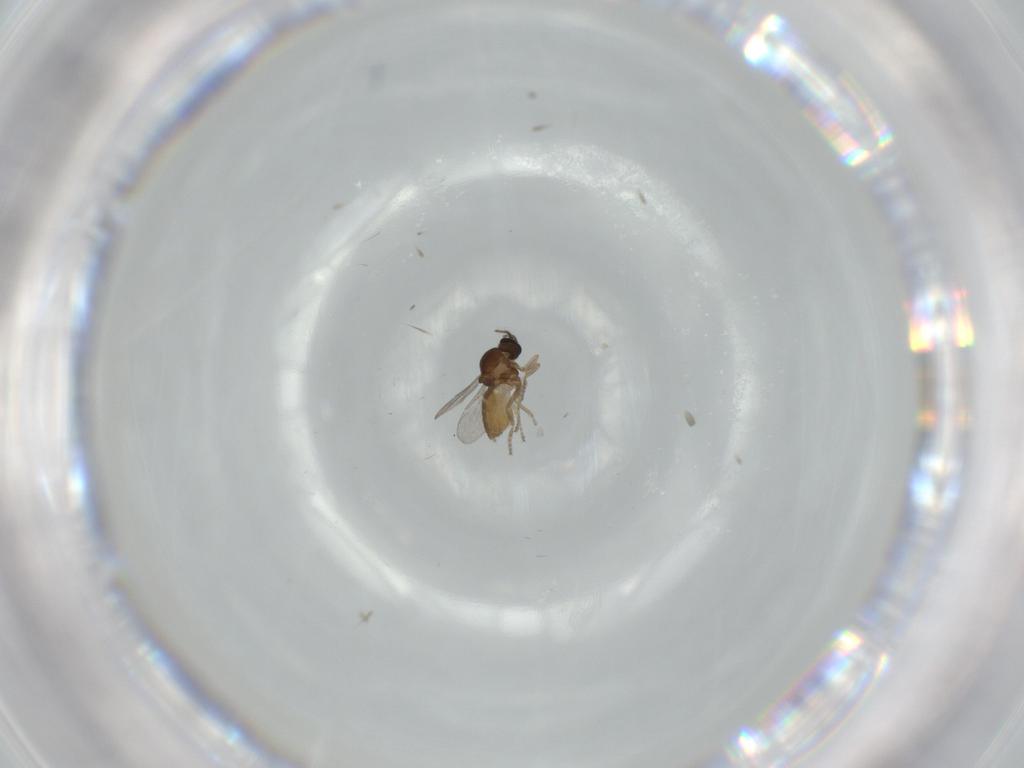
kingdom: Animalia
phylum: Arthropoda
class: Insecta
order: Diptera
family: Ceratopogonidae
